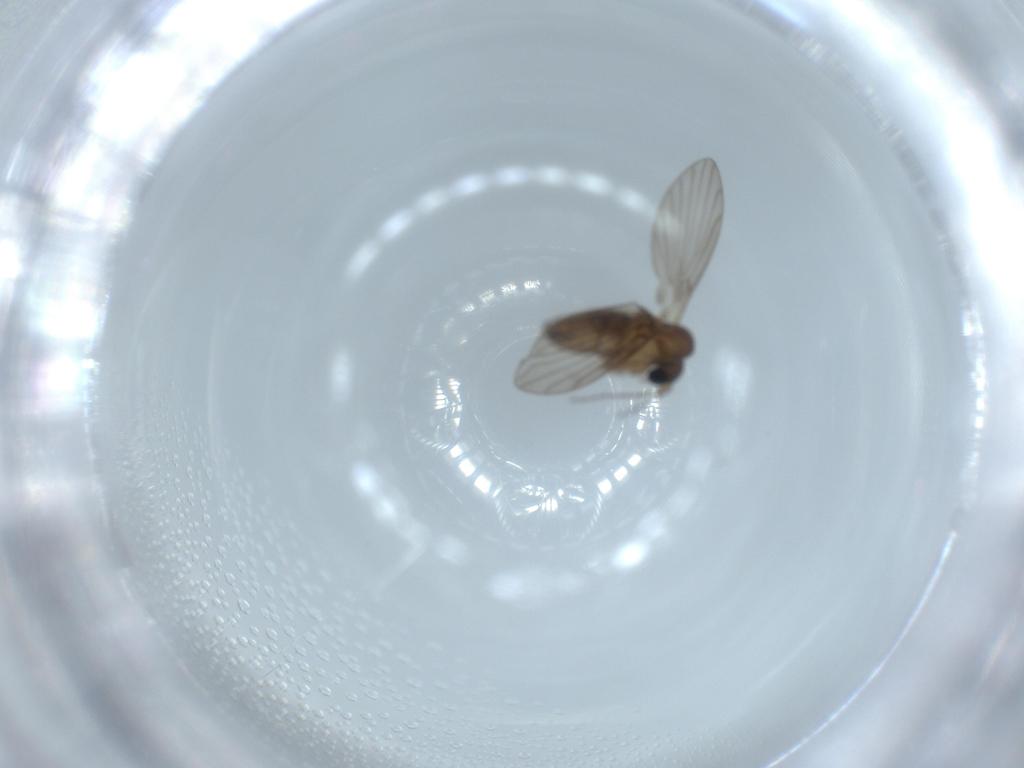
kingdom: Animalia
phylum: Arthropoda
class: Insecta
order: Diptera
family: Psychodidae
